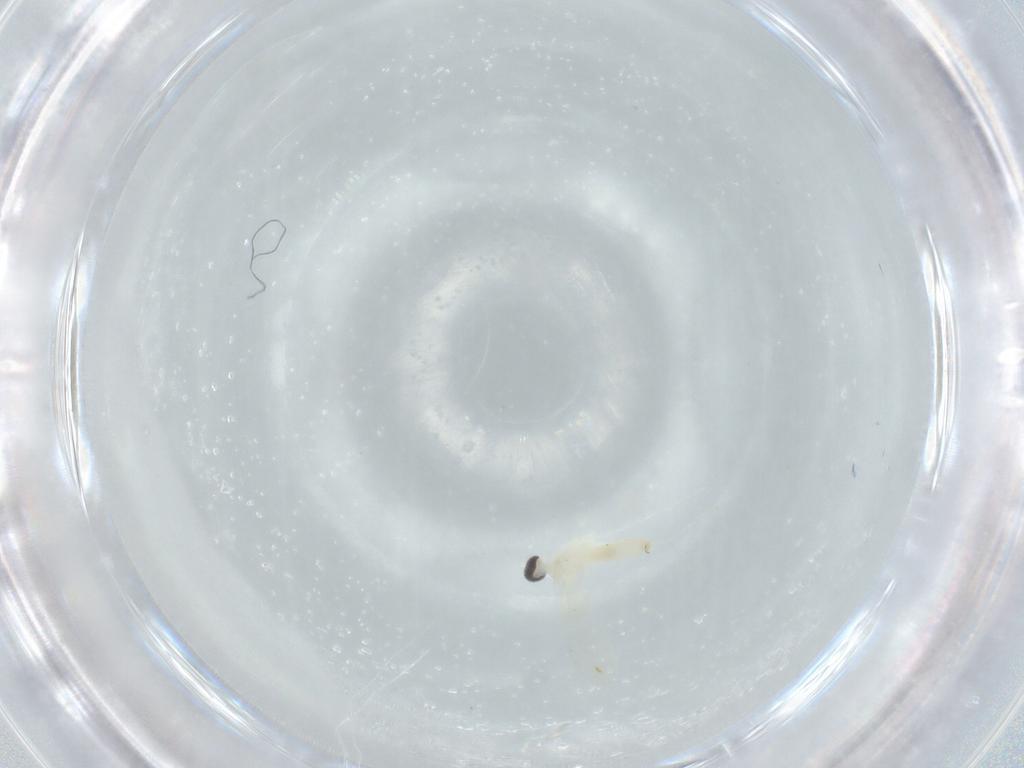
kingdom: Animalia
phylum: Arthropoda
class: Insecta
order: Diptera
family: Cecidomyiidae
